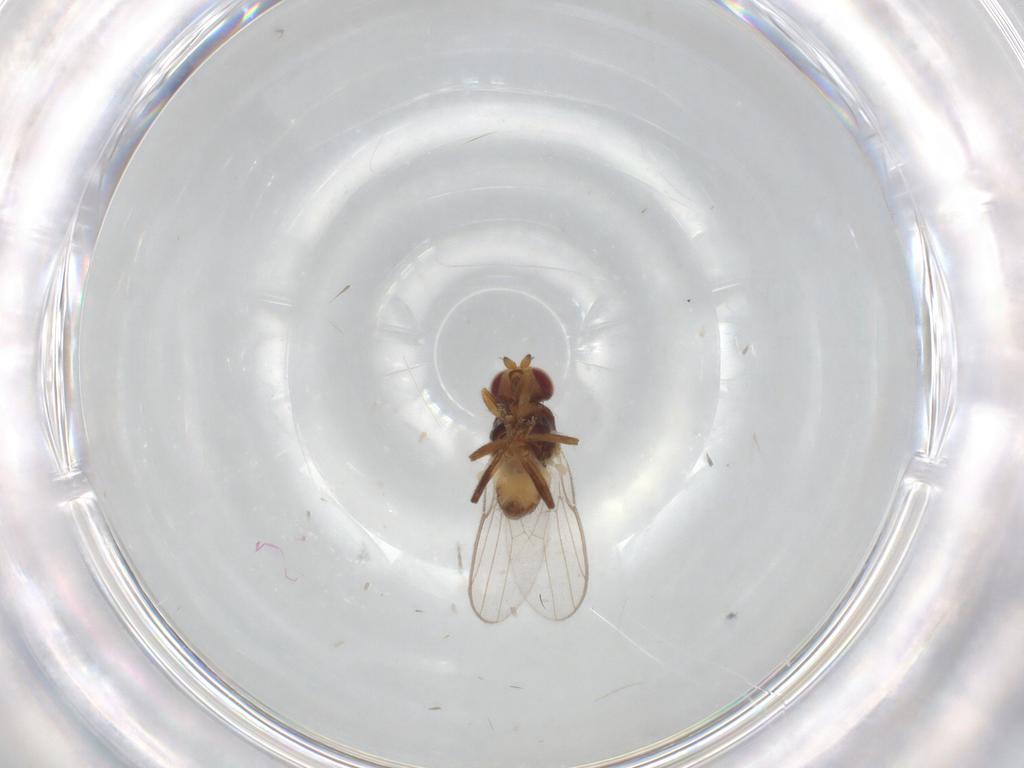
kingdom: Animalia
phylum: Arthropoda
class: Insecta
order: Diptera
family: Chloropidae
